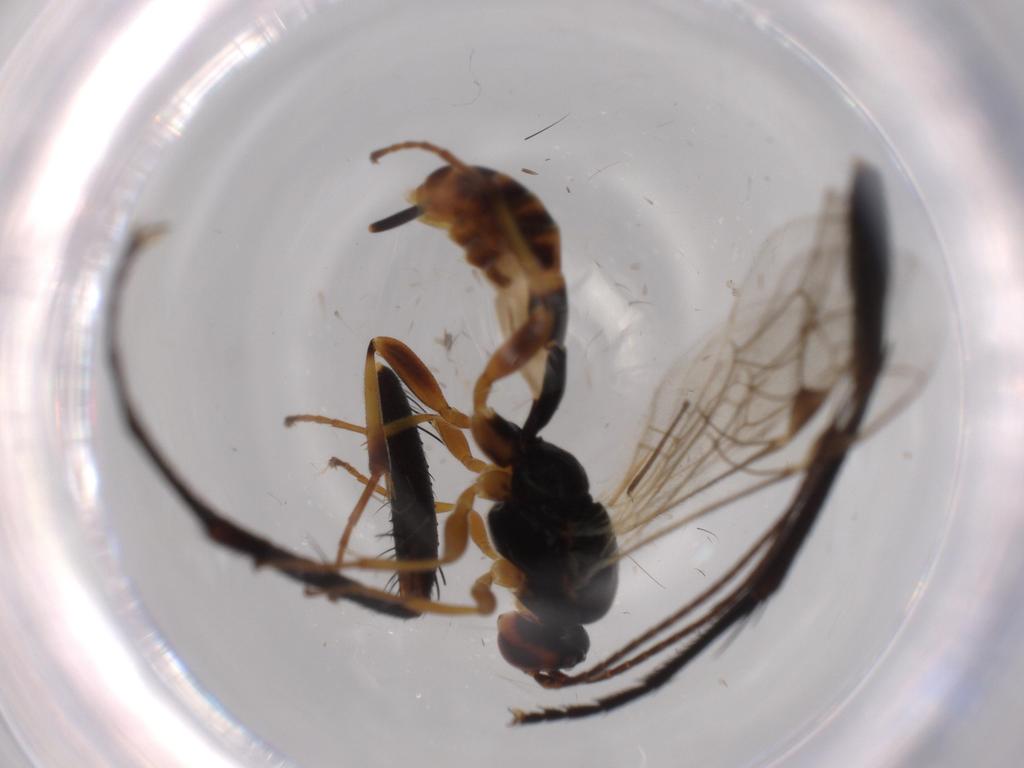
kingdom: Animalia
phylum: Arthropoda
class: Insecta
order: Hymenoptera
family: Ichneumonidae
